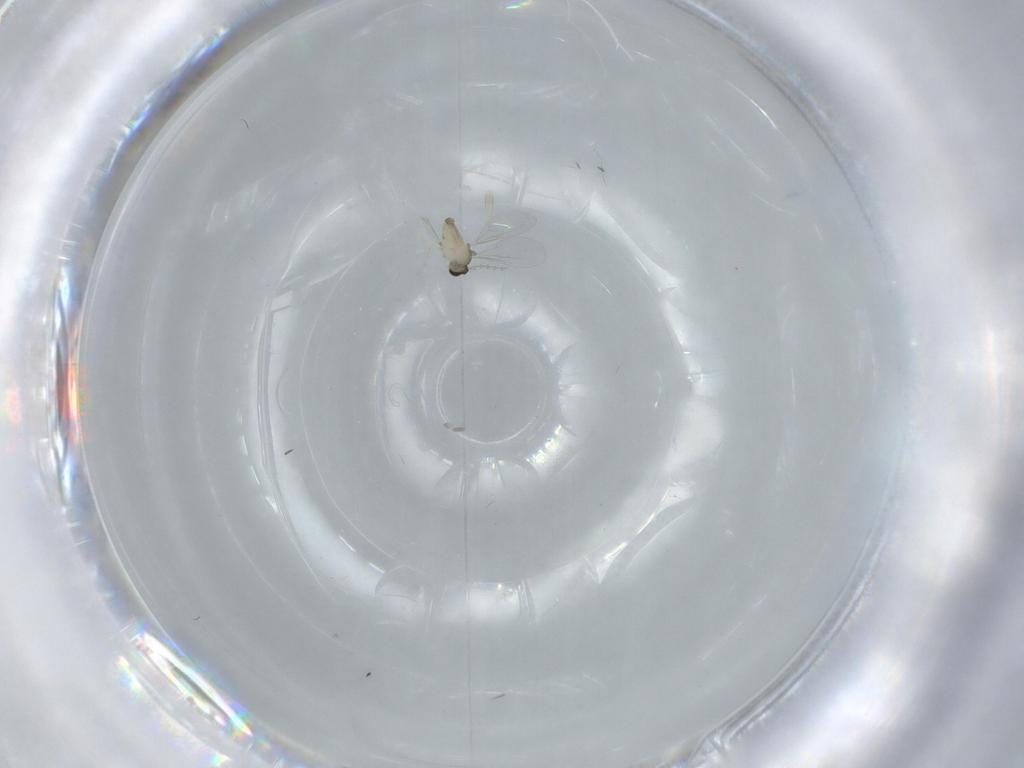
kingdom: Animalia
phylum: Arthropoda
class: Insecta
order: Diptera
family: Cecidomyiidae
